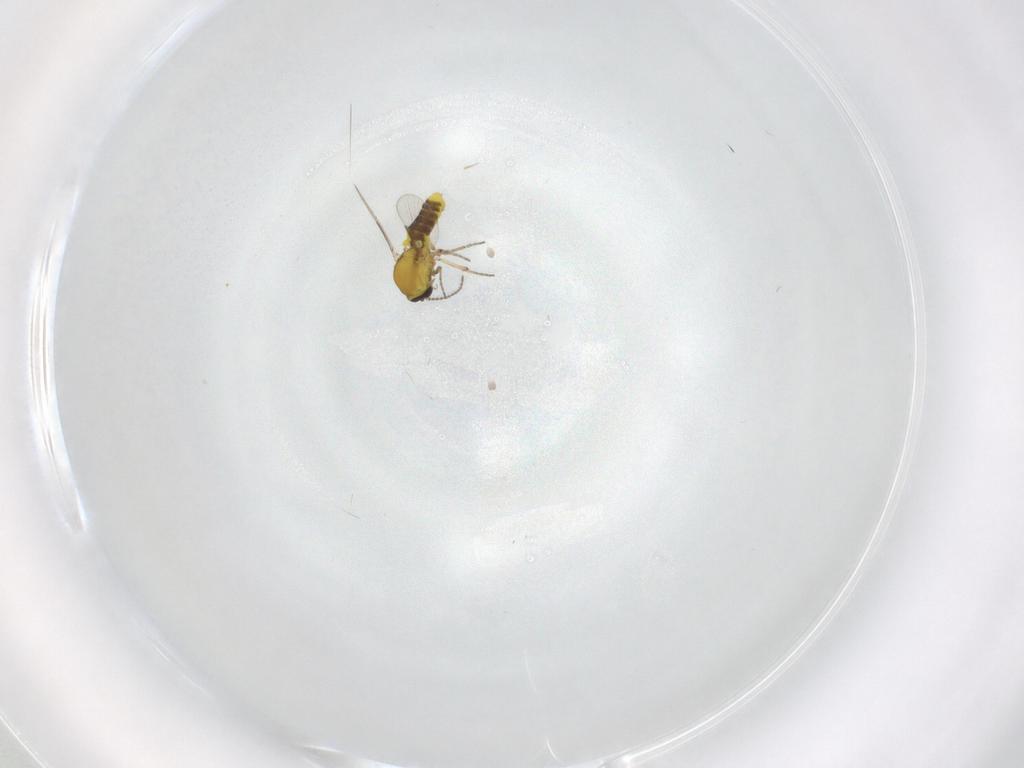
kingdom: Animalia
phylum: Arthropoda
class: Insecta
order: Diptera
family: Ceratopogonidae
